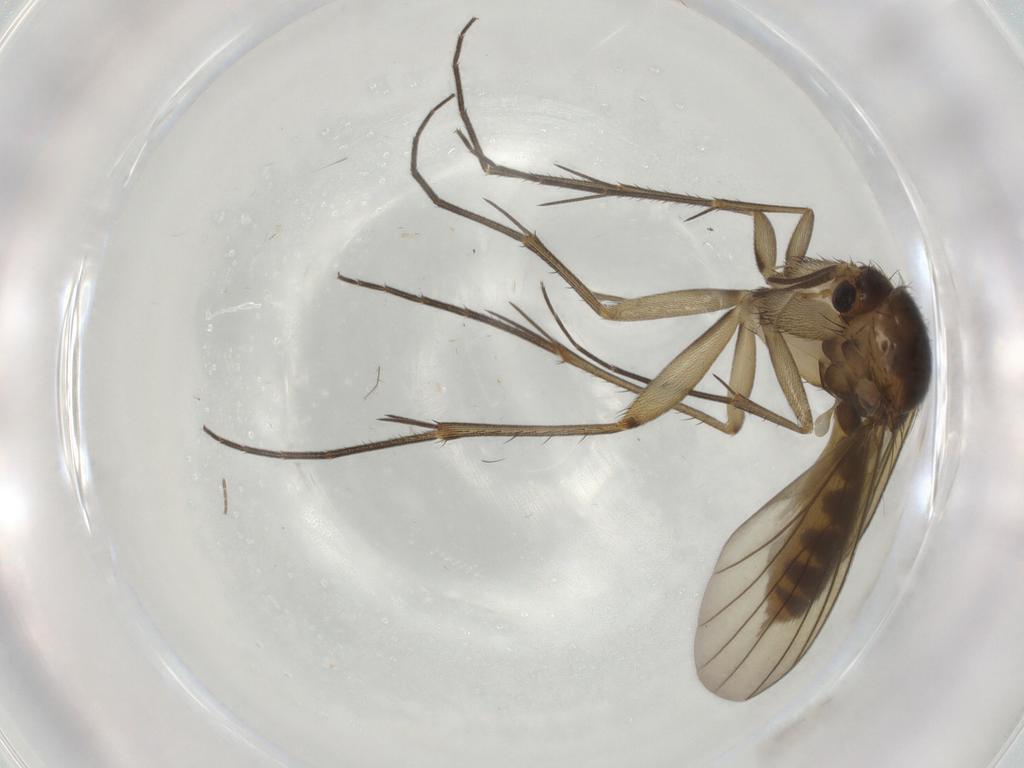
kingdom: Animalia
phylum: Arthropoda
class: Insecta
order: Diptera
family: Mycetophilidae
